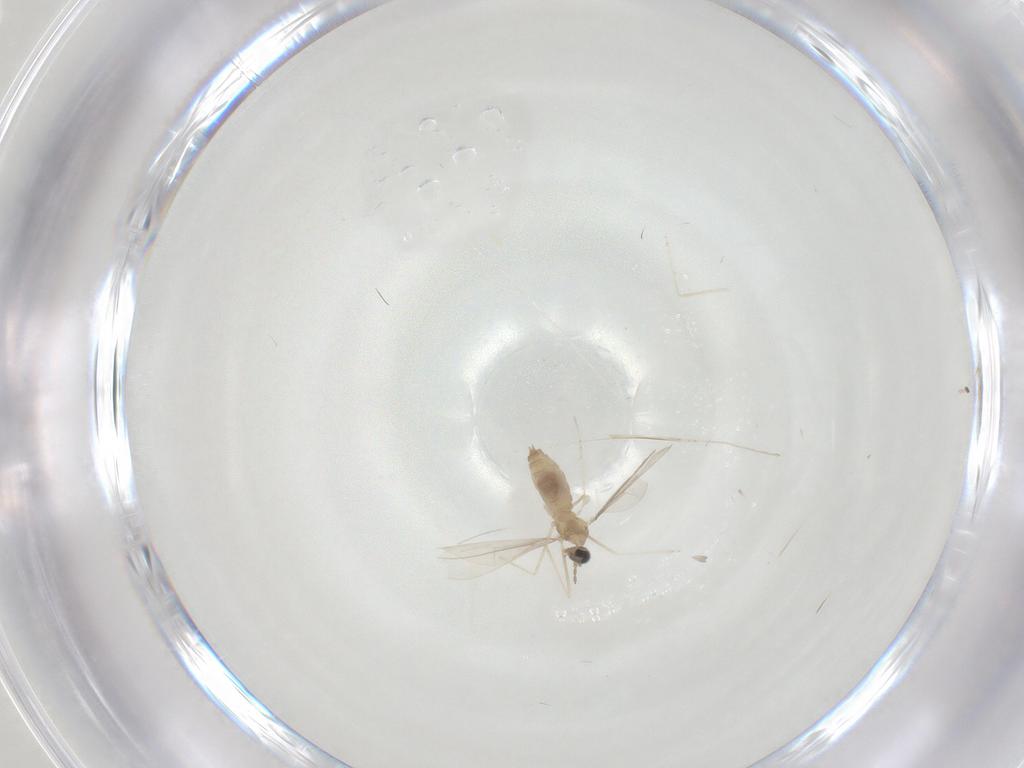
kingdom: Animalia
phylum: Arthropoda
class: Insecta
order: Diptera
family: Cecidomyiidae
